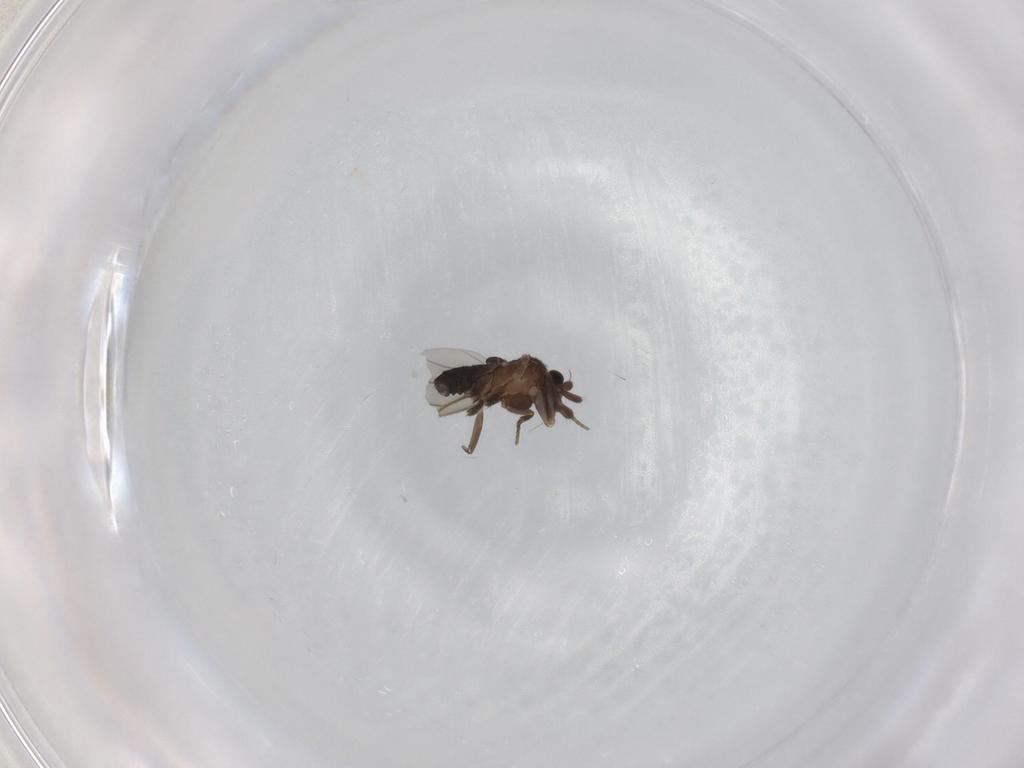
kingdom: Animalia
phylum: Arthropoda
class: Insecta
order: Diptera
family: Phoridae
